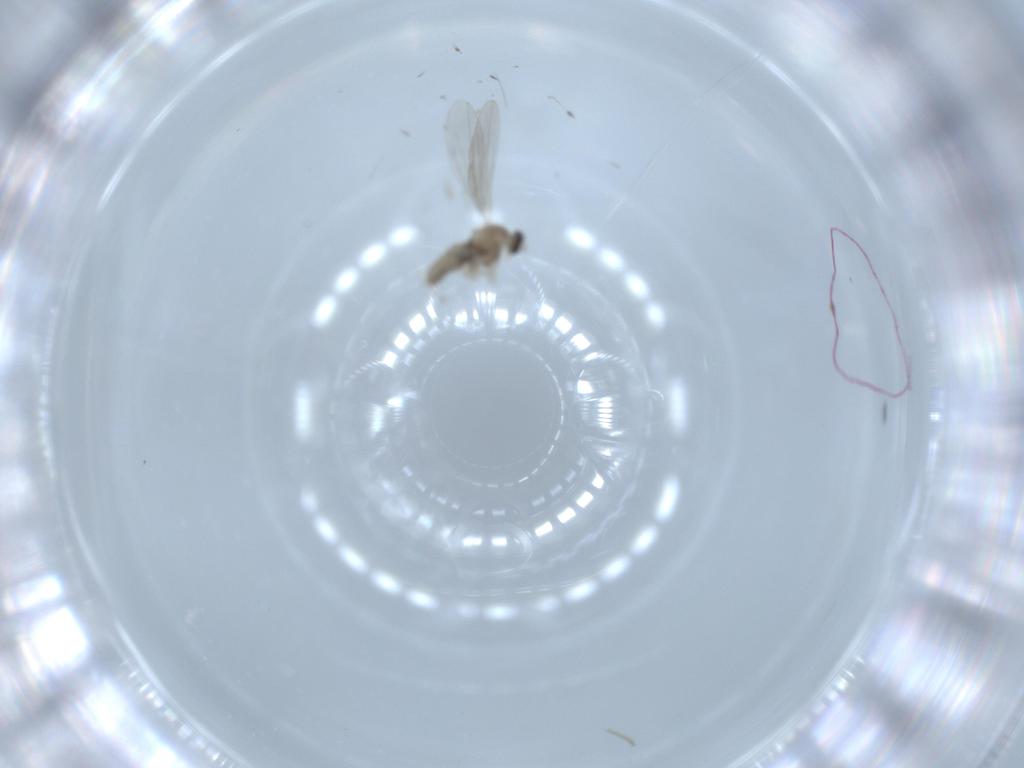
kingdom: Animalia
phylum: Arthropoda
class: Insecta
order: Diptera
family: Cecidomyiidae
